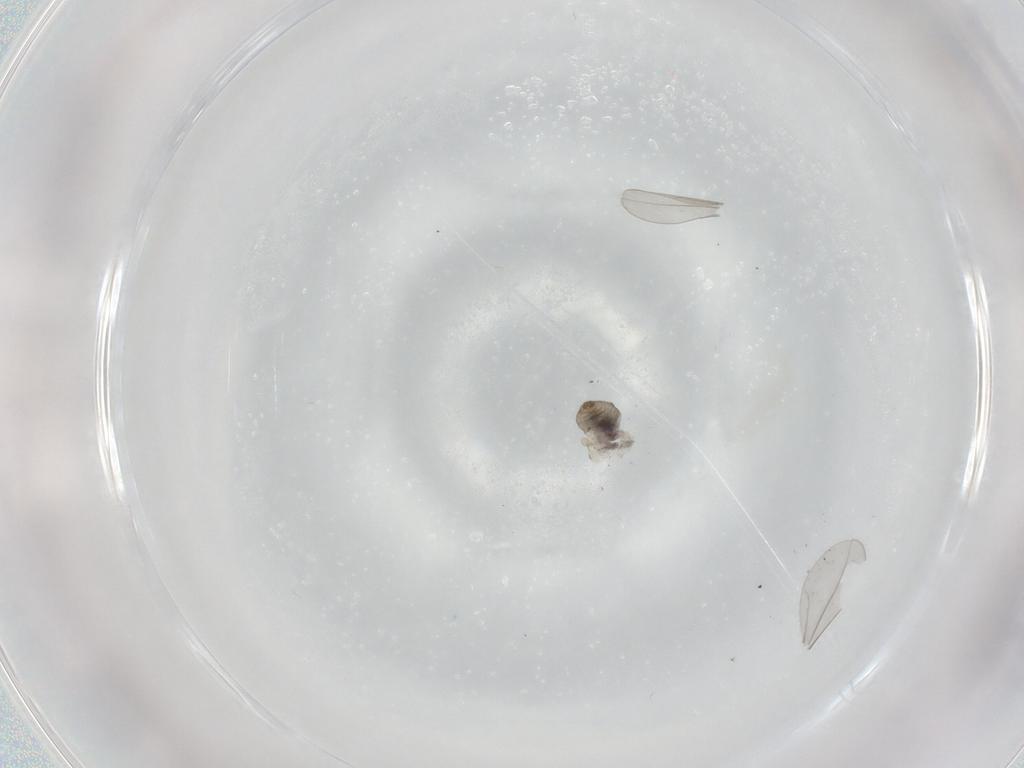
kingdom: Animalia
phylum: Arthropoda
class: Insecta
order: Diptera
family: Cecidomyiidae
